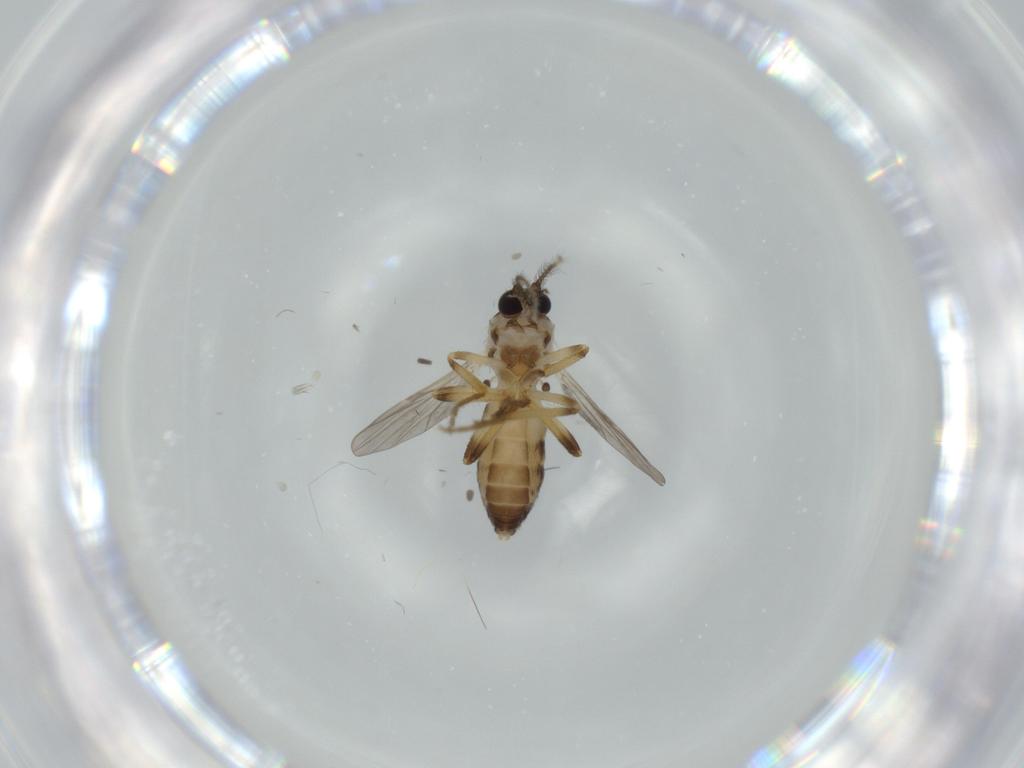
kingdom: Animalia
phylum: Arthropoda
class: Insecta
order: Diptera
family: Ceratopogonidae
